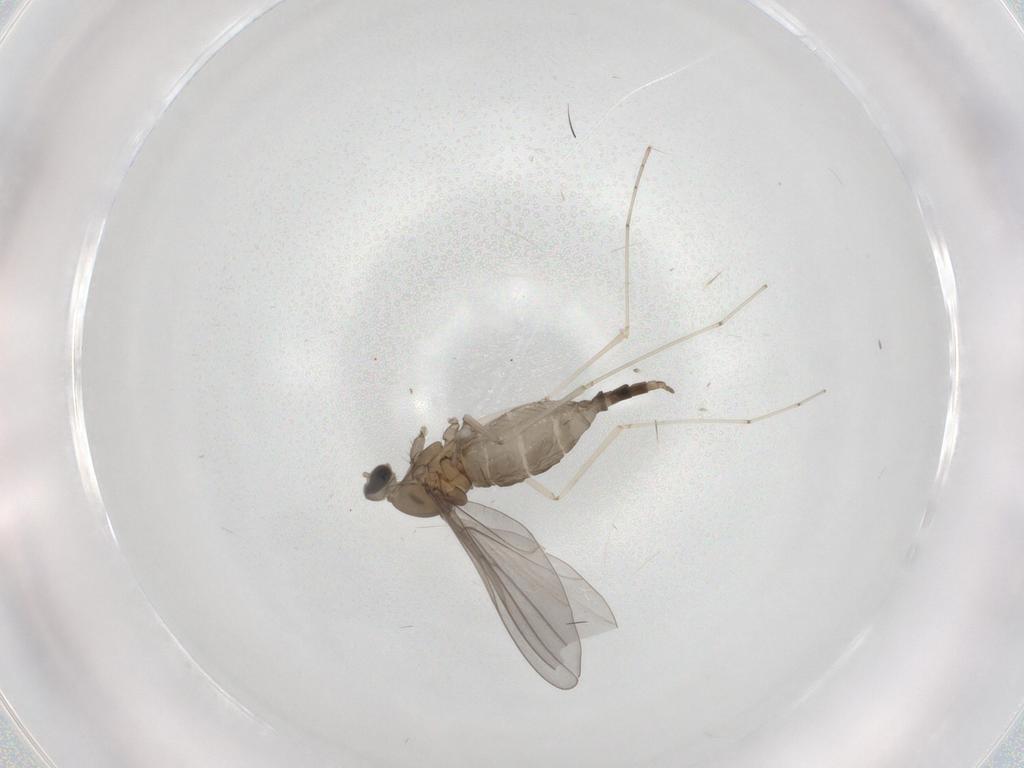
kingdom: Animalia
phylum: Arthropoda
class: Insecta
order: Diptera
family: Cecidomyiidae
